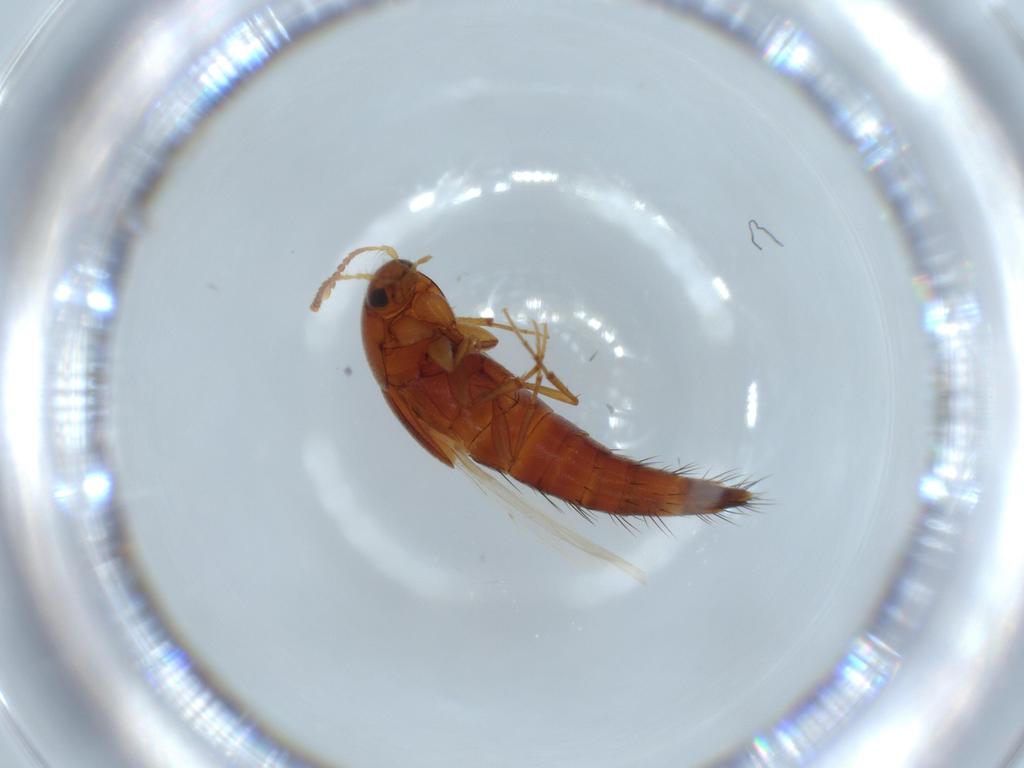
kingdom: Animalia
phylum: Arthropoda
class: Insecta
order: Coleoptera
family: Staphylinidae
